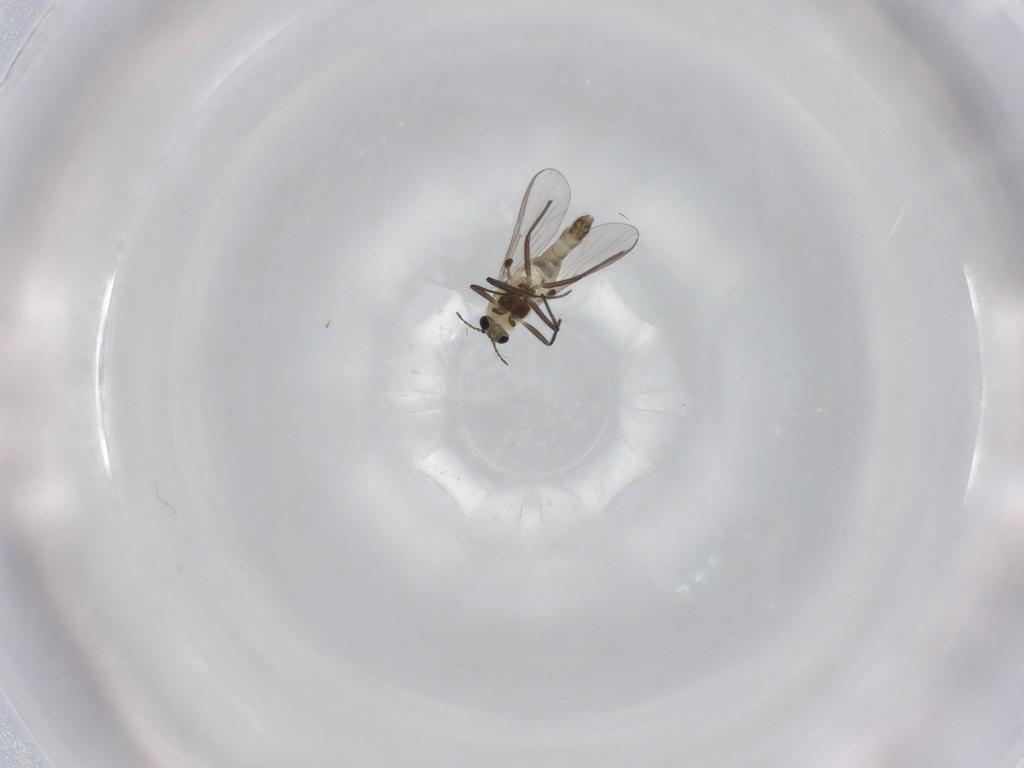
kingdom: Animalia
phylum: Arthropoda
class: Insecta
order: Diptera
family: Chironomidae
